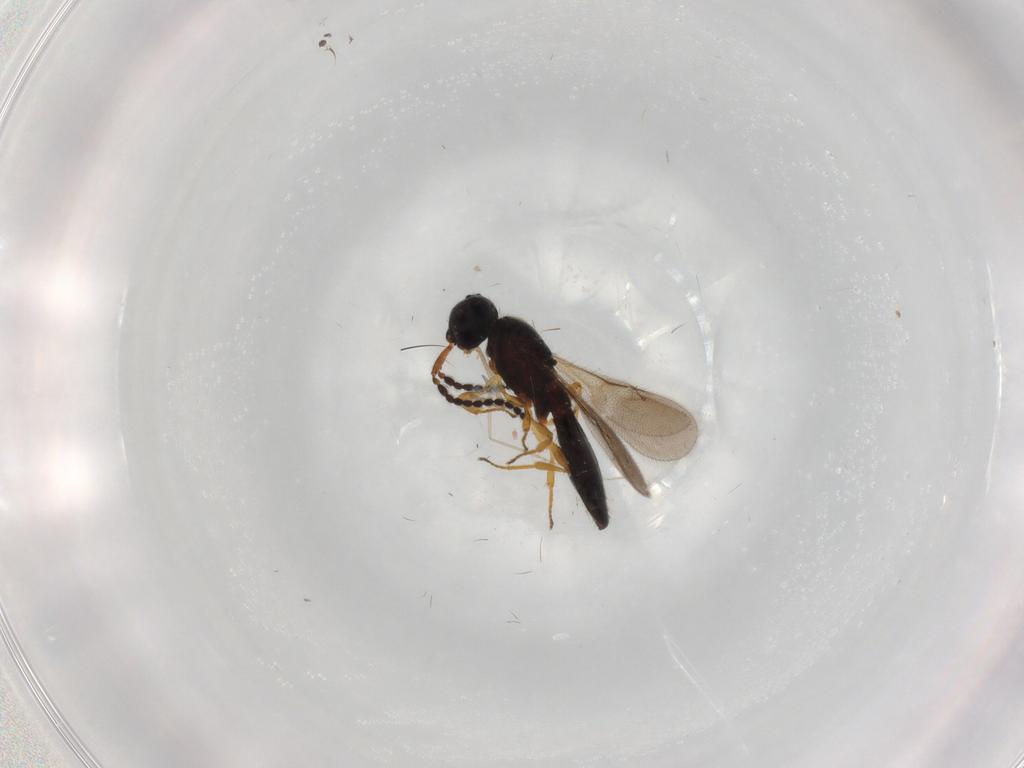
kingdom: Animalia
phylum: Arthropoda
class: Insecta
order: Hymenoptera
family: Scelionidae
